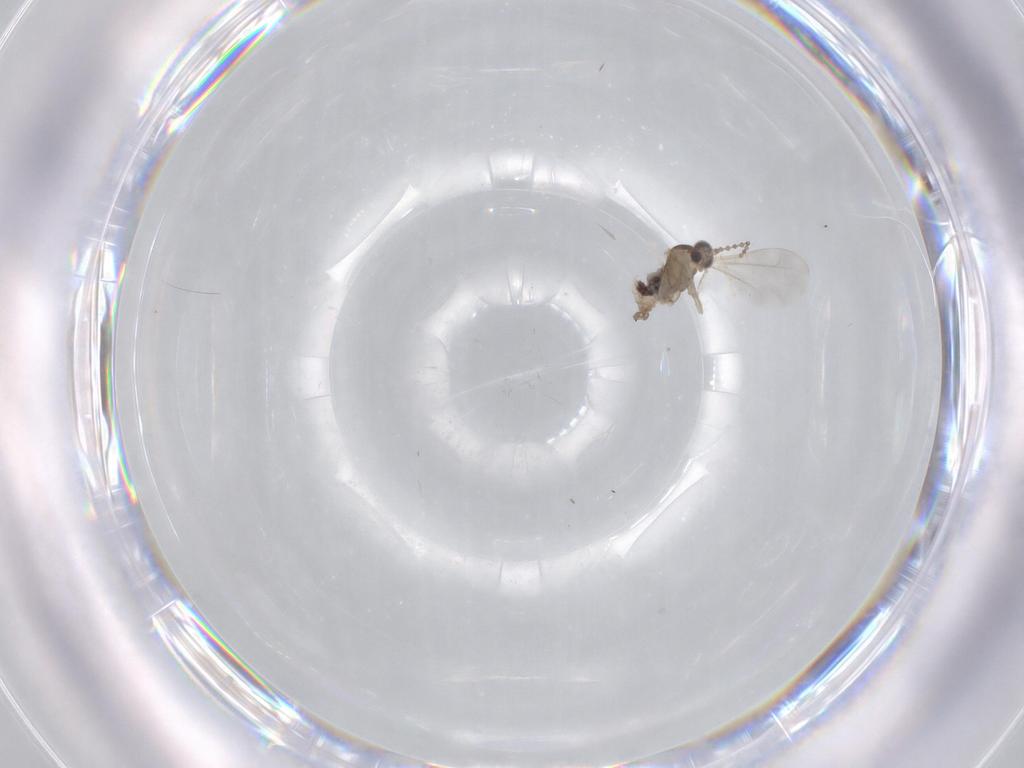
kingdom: Animalia
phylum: Arthropoda
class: Insecta
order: Diptera
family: Cecidomyiidae
